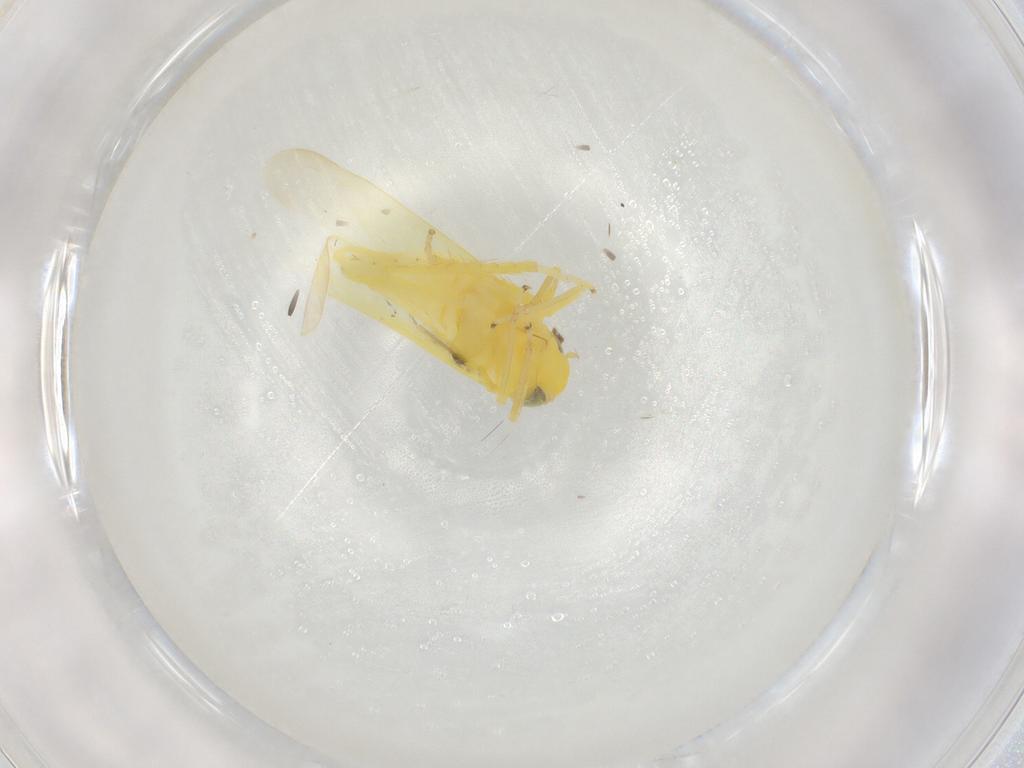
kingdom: Animalia
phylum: Arthropoda
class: Insecta
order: Hemiptera
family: Cicadellidae
